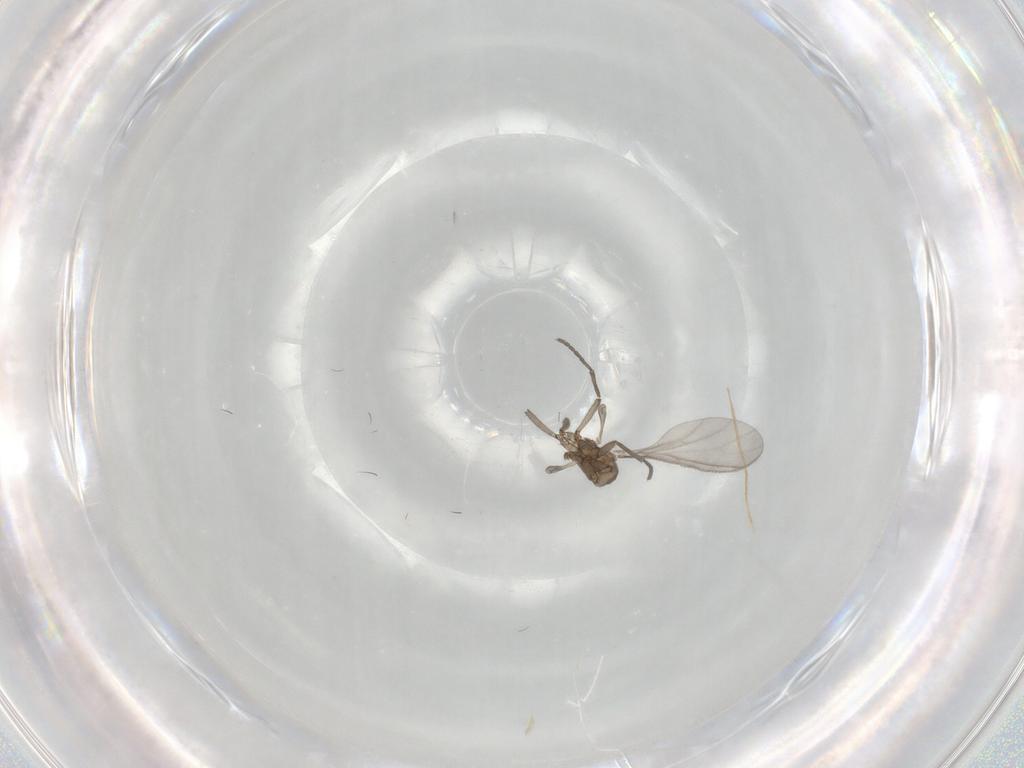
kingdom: Animalia
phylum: Arthropoda
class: Insecta
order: Diptera
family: Sciaridae
